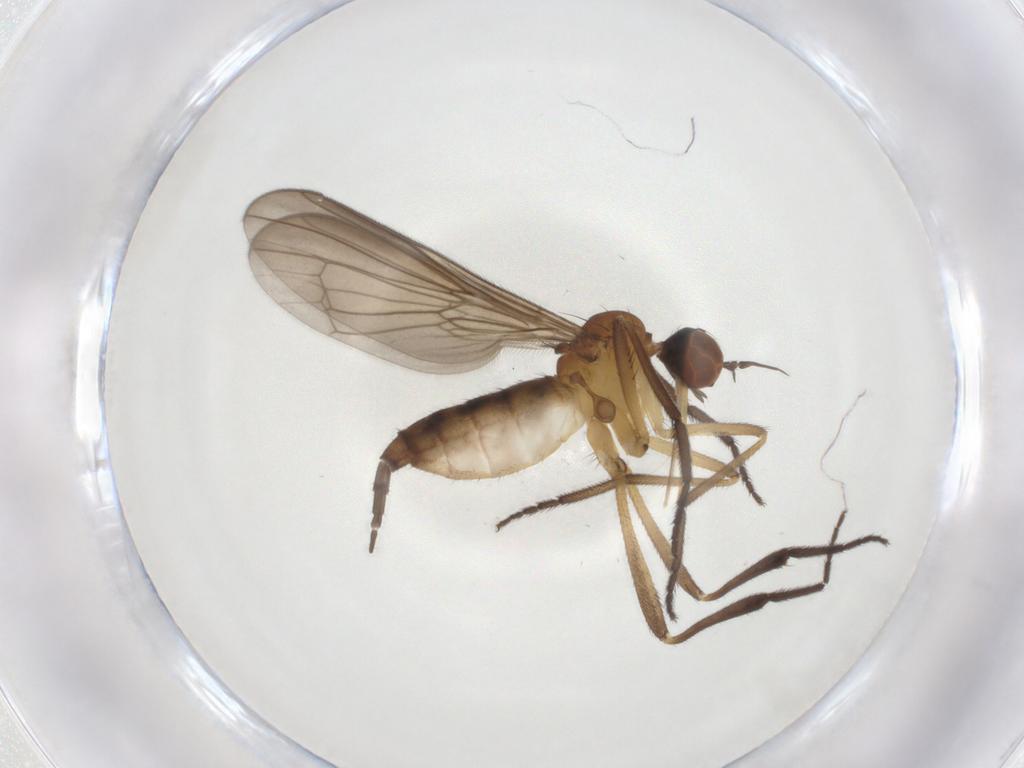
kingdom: Animalia
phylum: Arthropoda
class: Insecta
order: Diptera
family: Empididae
